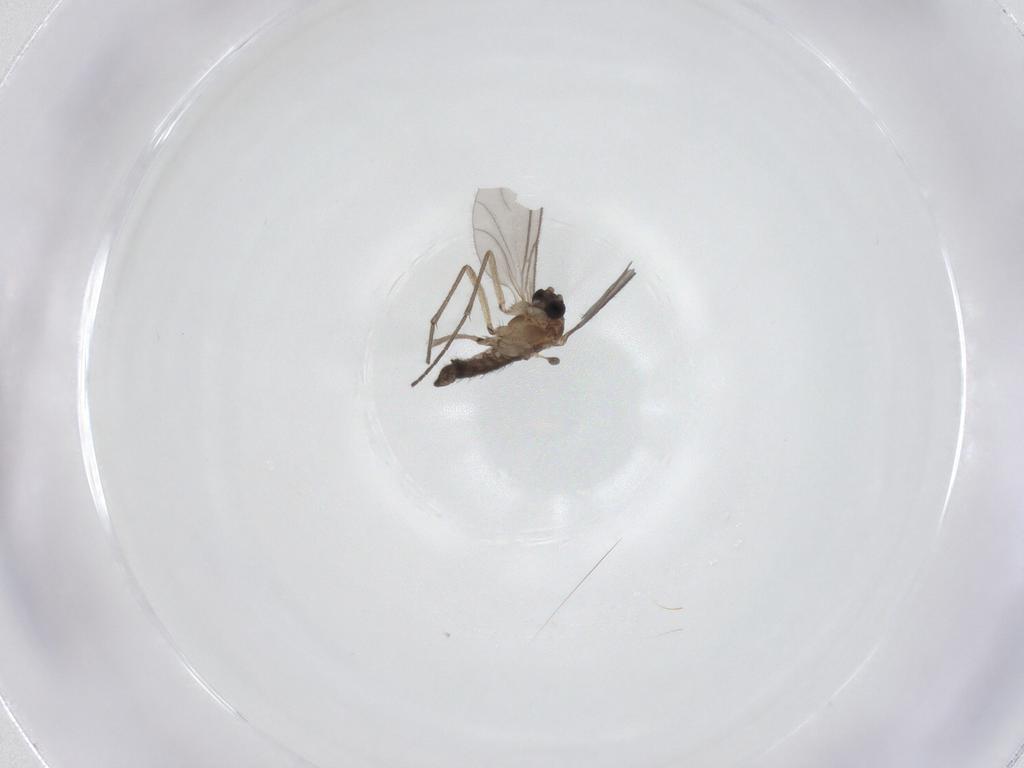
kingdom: Animalia
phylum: Arthropoda
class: Insecta
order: Diptera
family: Sciaridae
